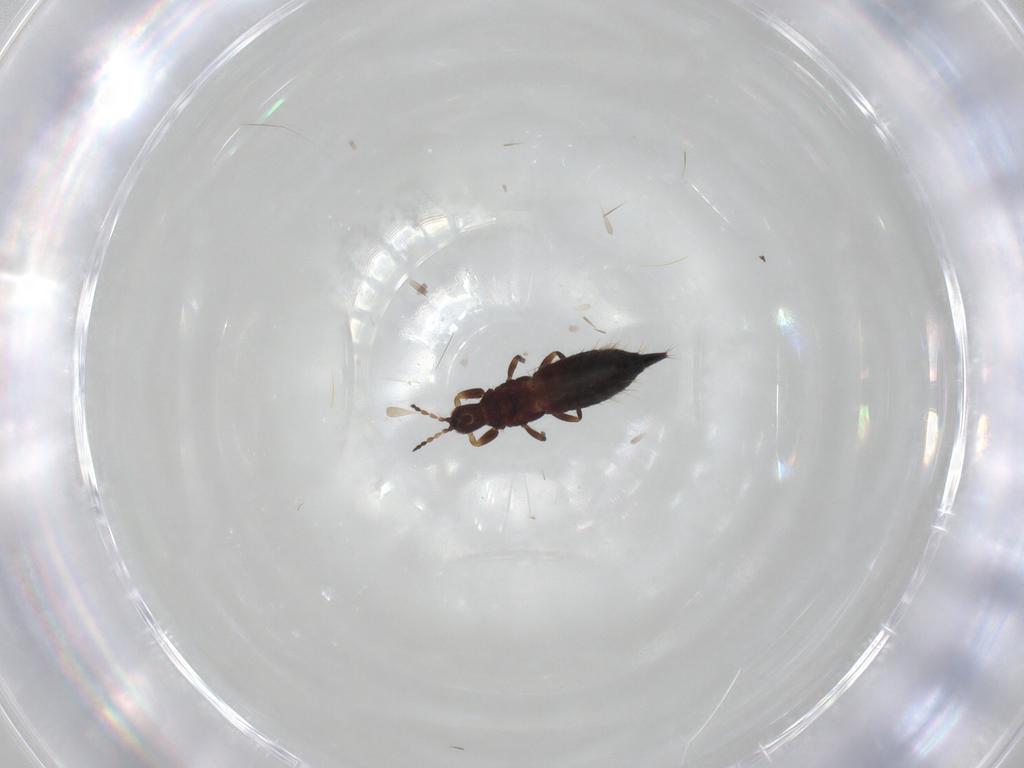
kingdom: Animalia
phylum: Arthropoda
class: Insecta
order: Thysanoptera
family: Phlaeothripidae
